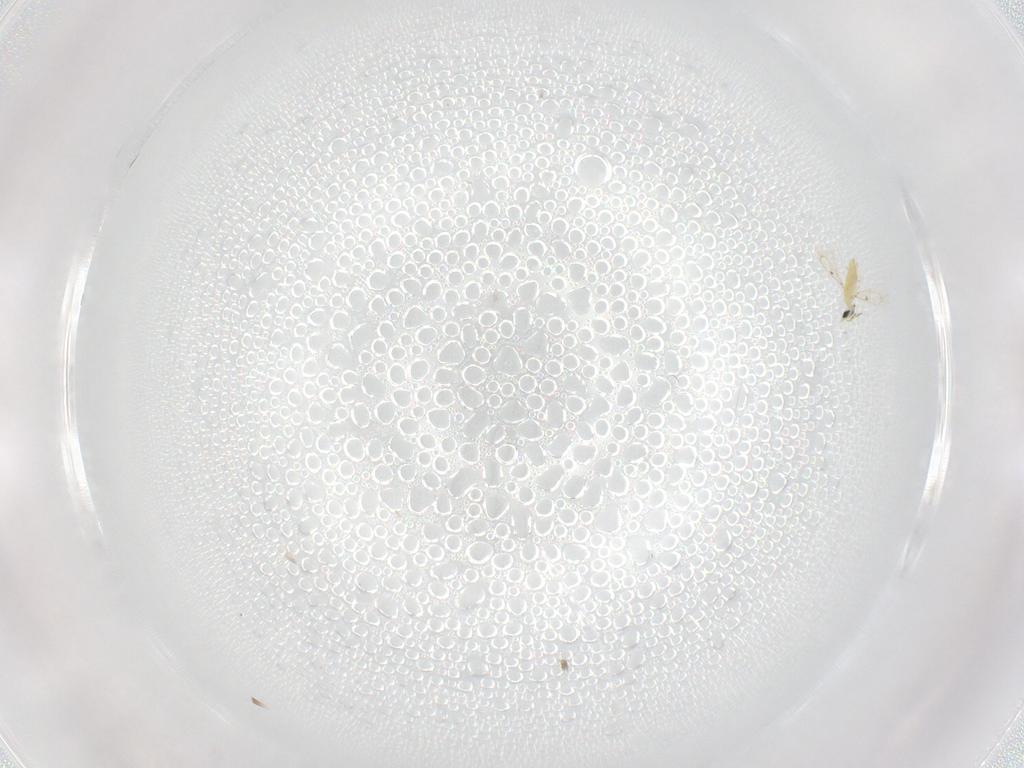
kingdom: Animalia
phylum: Arthropoda
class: Insecta
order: Hymenoptera
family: Trichogrammatidae
